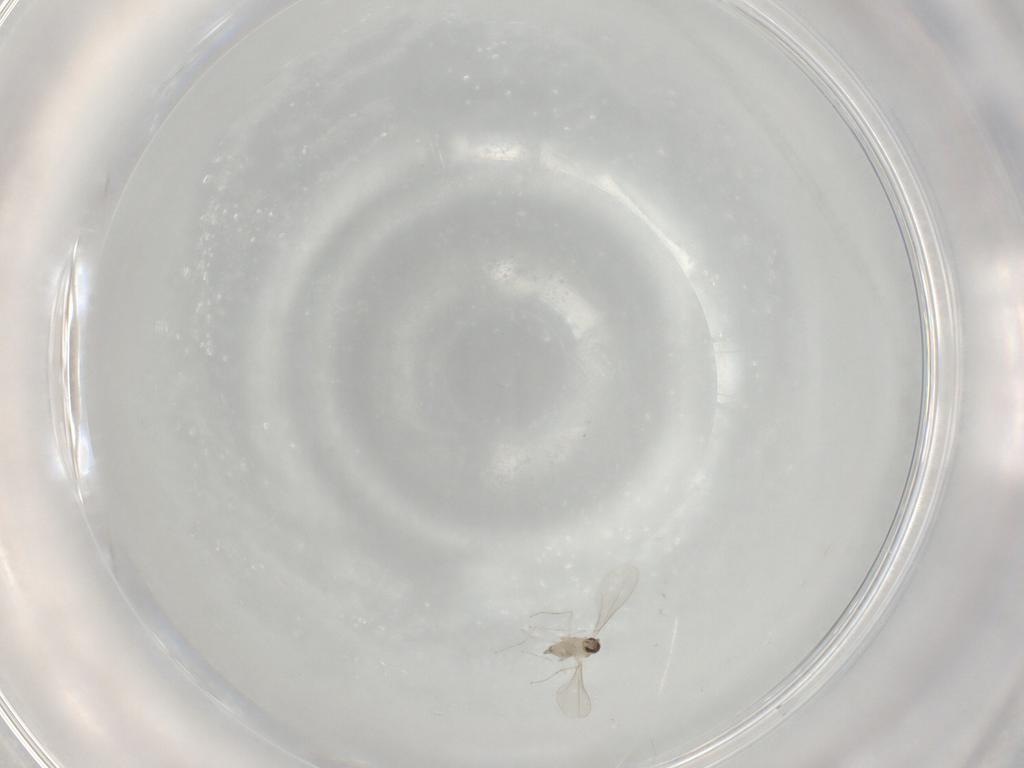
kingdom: Animalia
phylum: Arthropoda
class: Insecta
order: Diptera
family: Cecidomyiidae
